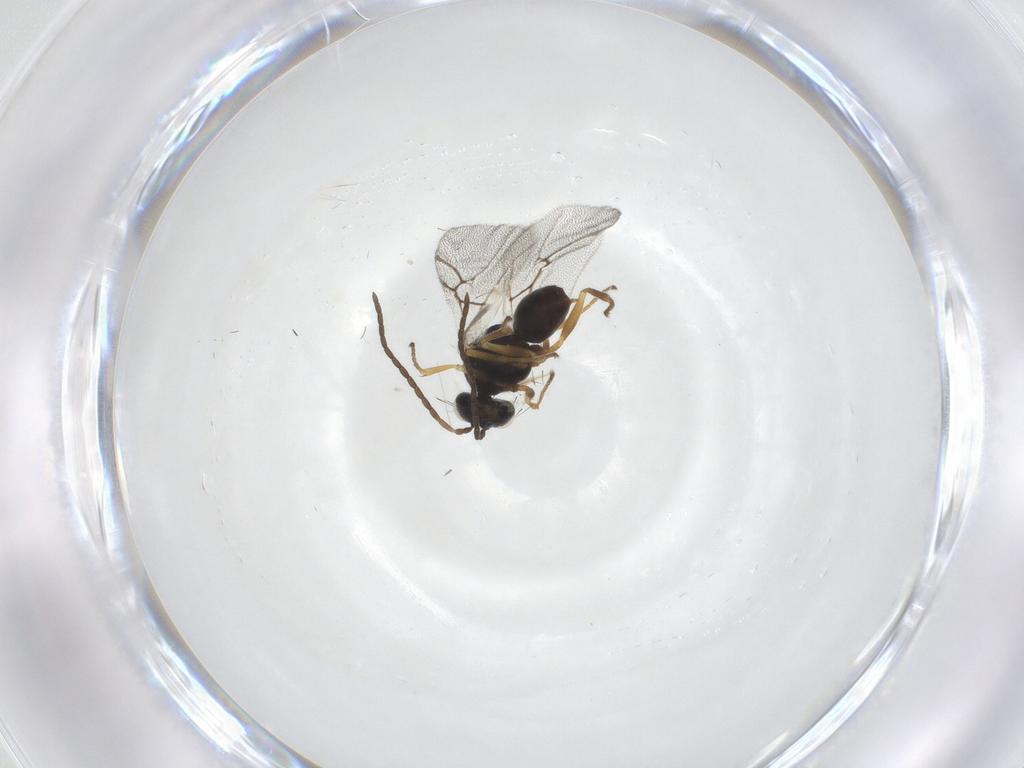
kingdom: Animalia
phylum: Arthropoda
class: Insecta
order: Hymenoptera
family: Cynipidae
